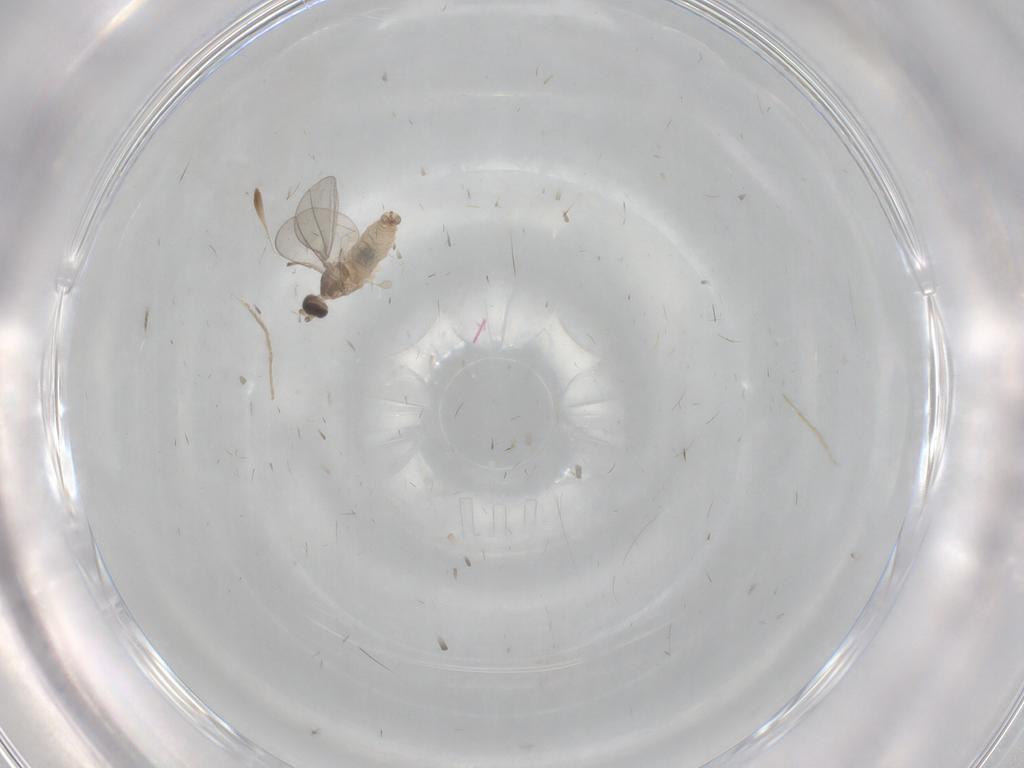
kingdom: Animalia
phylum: Arthropoda
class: Insecta
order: Diptera
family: Cecidomyiidae
